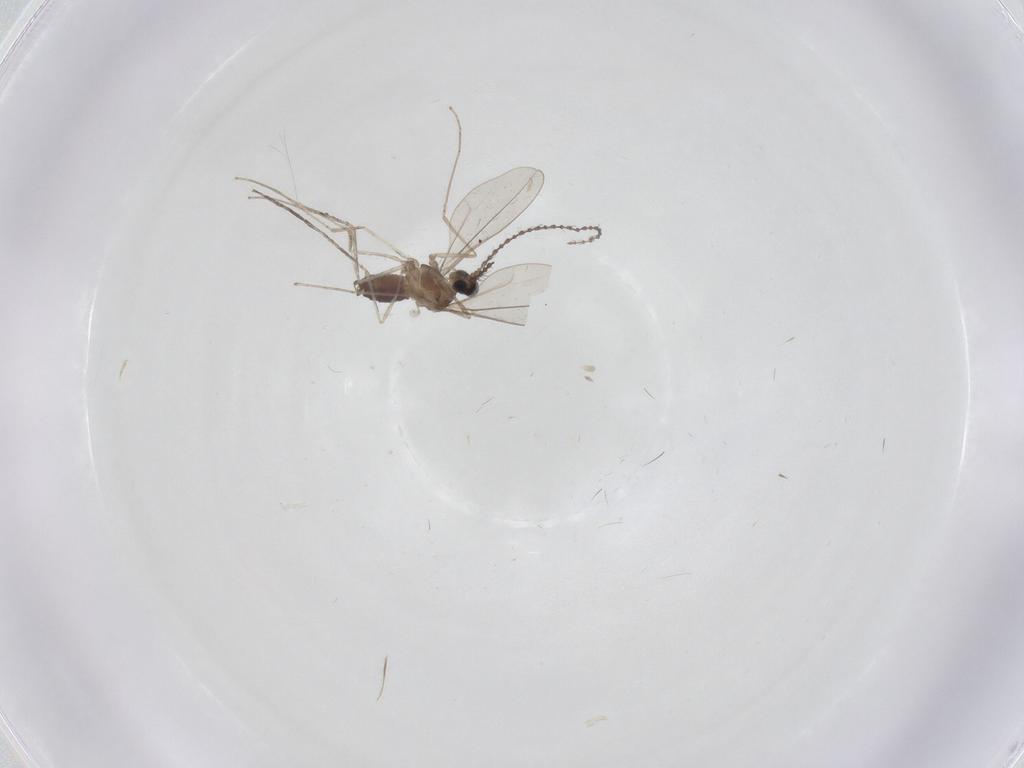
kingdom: Animalia
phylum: Arthropoda
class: Insecta
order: Diptera
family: Cecidomyiidae
